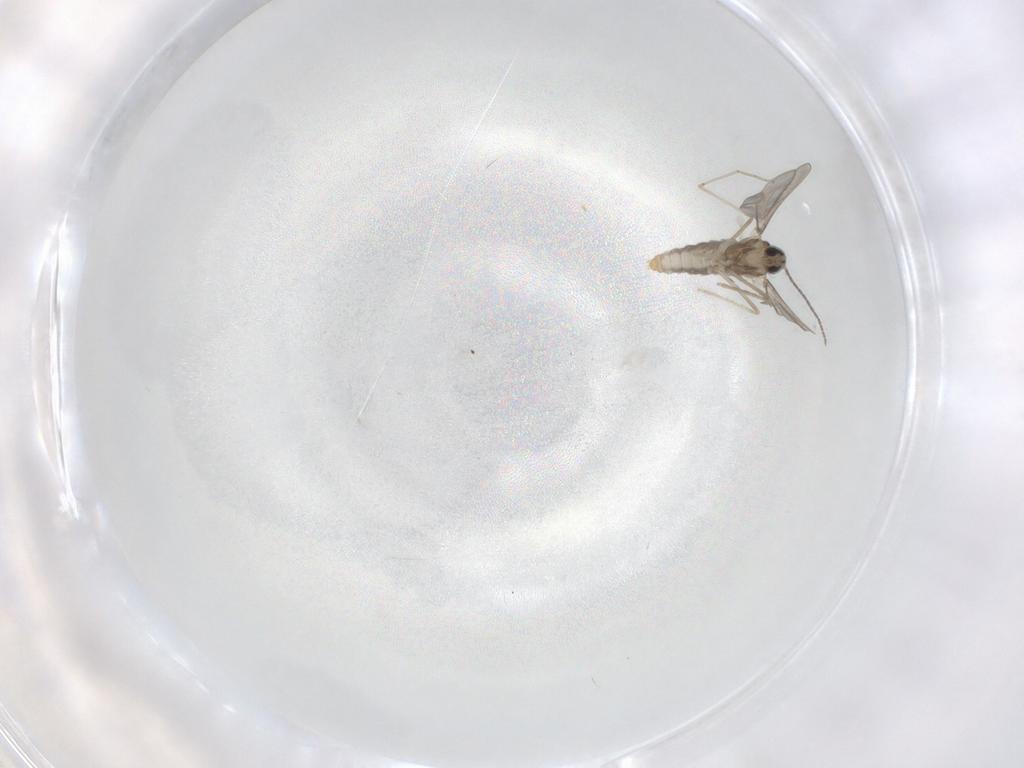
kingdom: Animalia
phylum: Arthropoda
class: Insecta
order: Diptera
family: Cecidomyiidae
